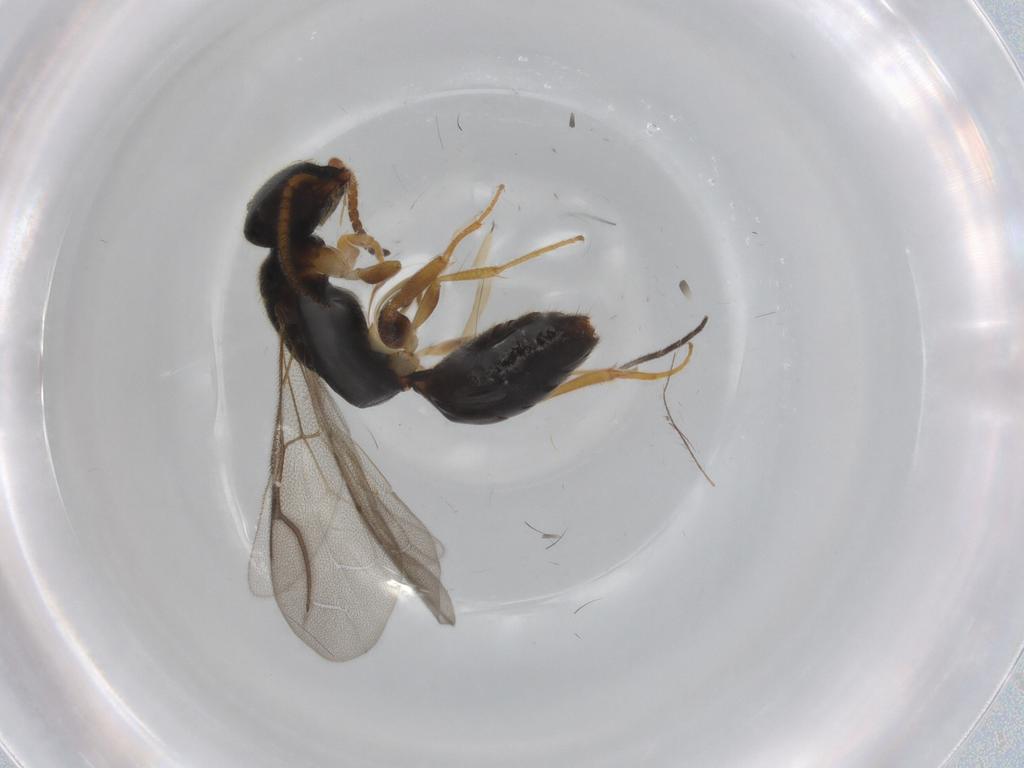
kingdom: Animalia
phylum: Arthropoda
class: Insecta
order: Hymenoptera
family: Bethylidae
